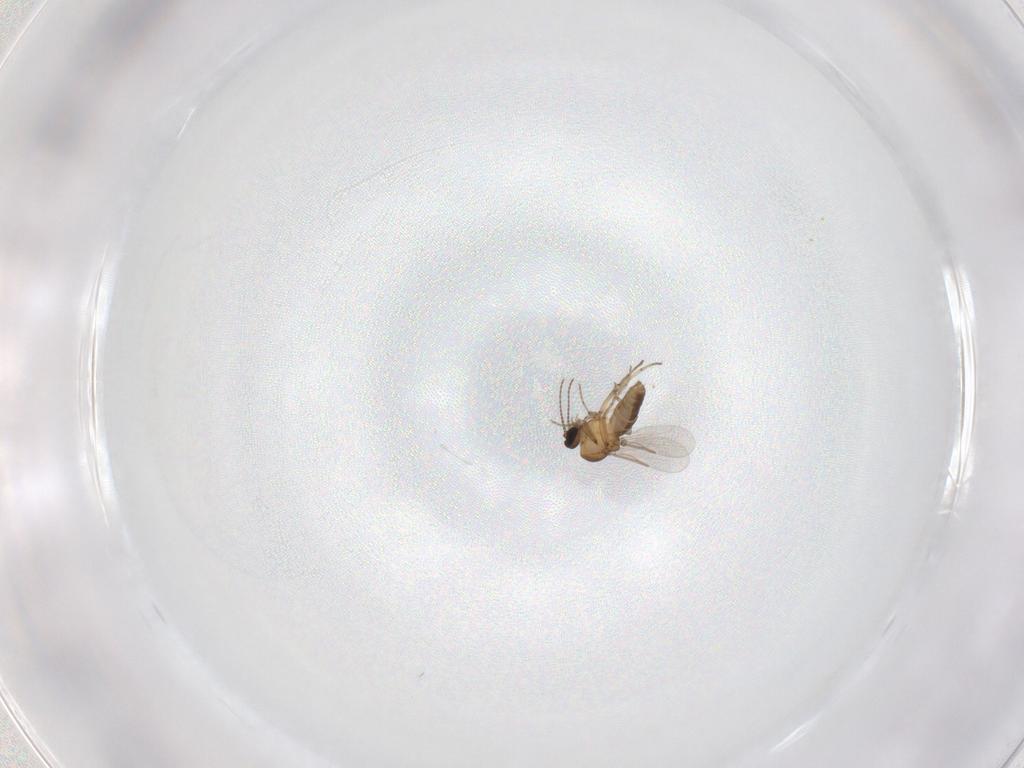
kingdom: Animalia
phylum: Arthropoda
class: Insecta
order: Diptera
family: Ceratopogonidae
